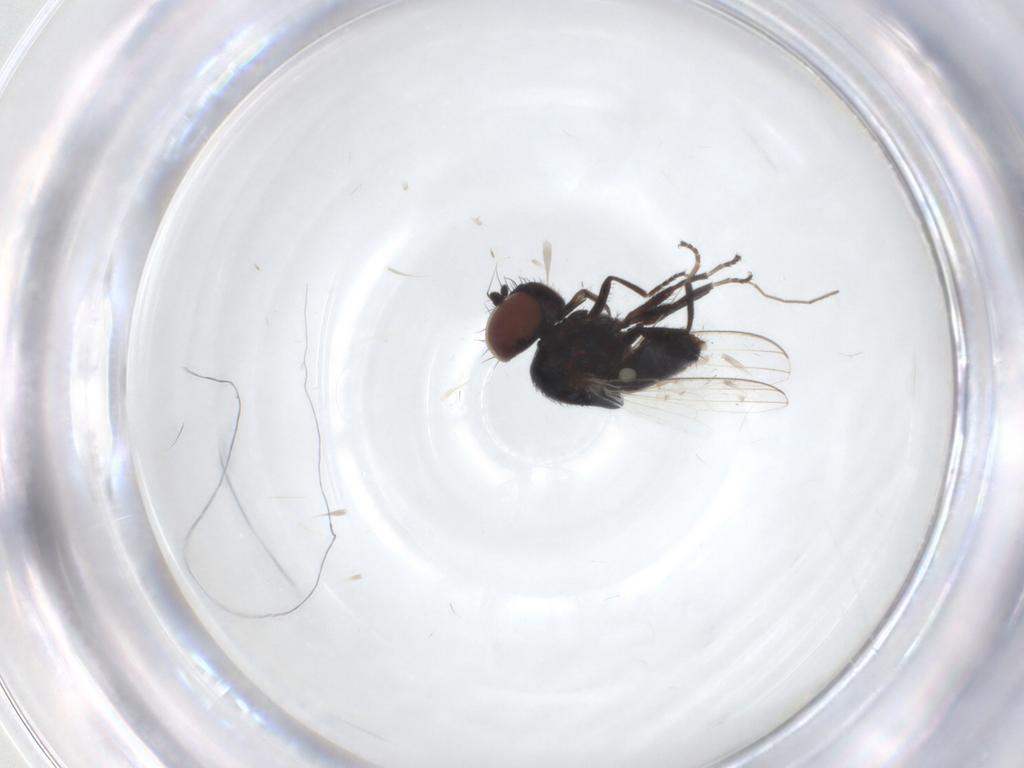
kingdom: Animalia
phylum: Arthropoda
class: Insecta
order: Diptera
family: Milichiidae
